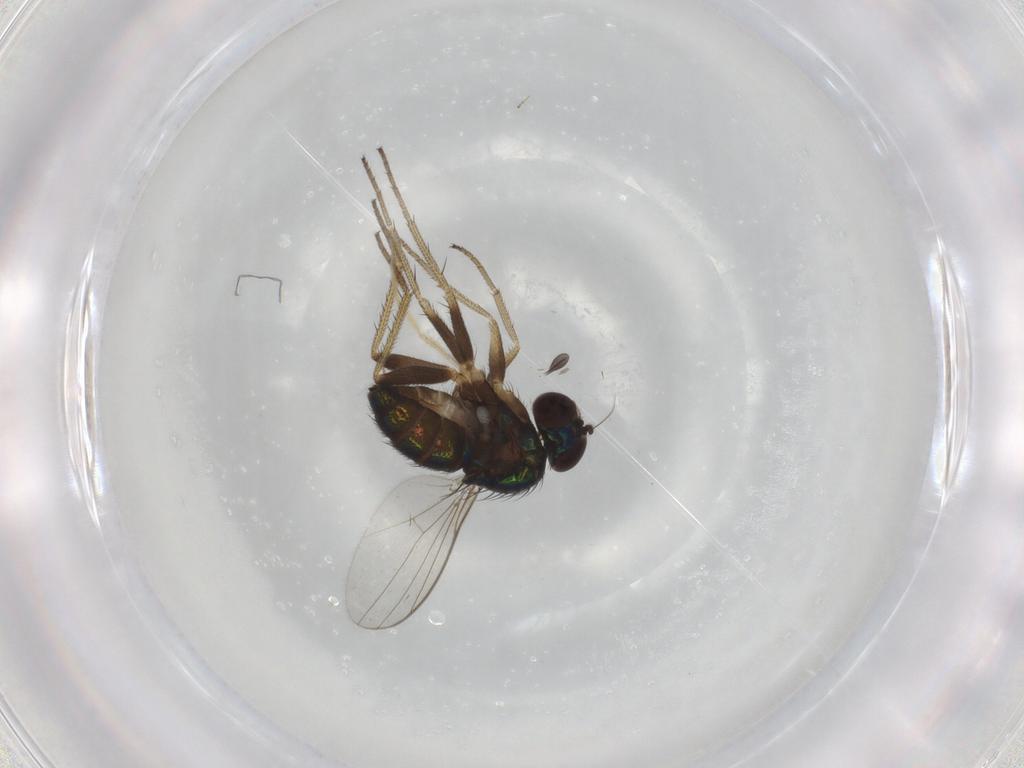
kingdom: Animalia
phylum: Arthropoda
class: Insecta
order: Diptera
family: Chironomidae
